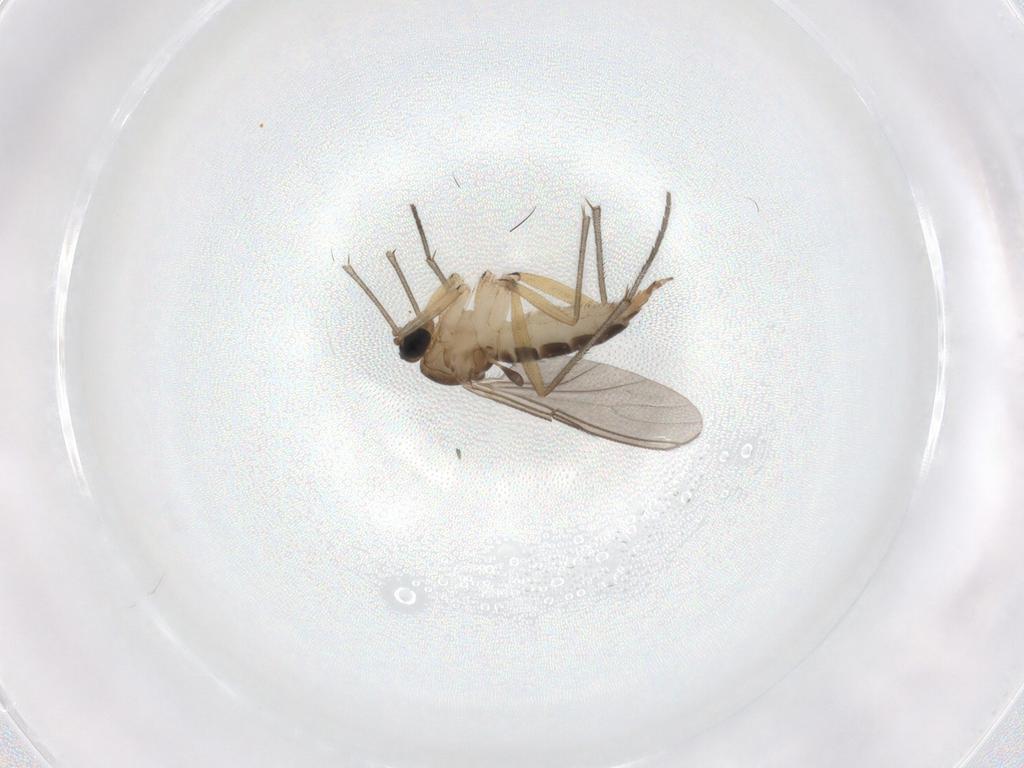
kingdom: Animalia
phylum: Arthropoda
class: Insecta
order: Diptera
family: Sciaridae
